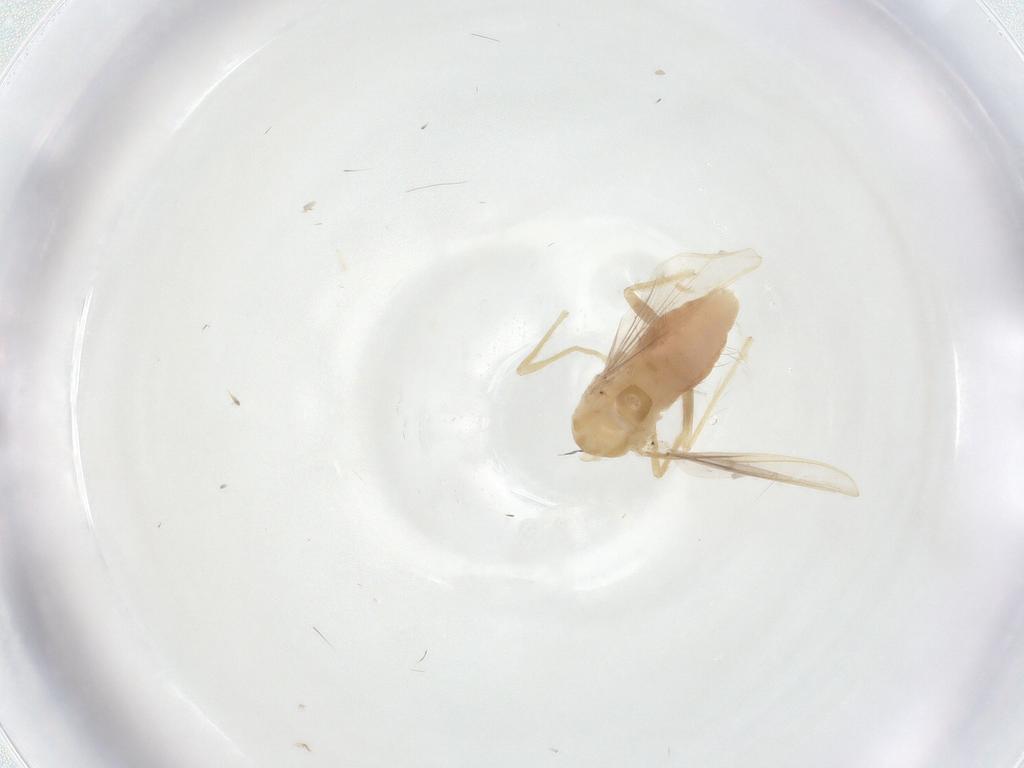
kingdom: Animalia
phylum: Arthropoda
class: Insecta
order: Diptera
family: Chironomidae
